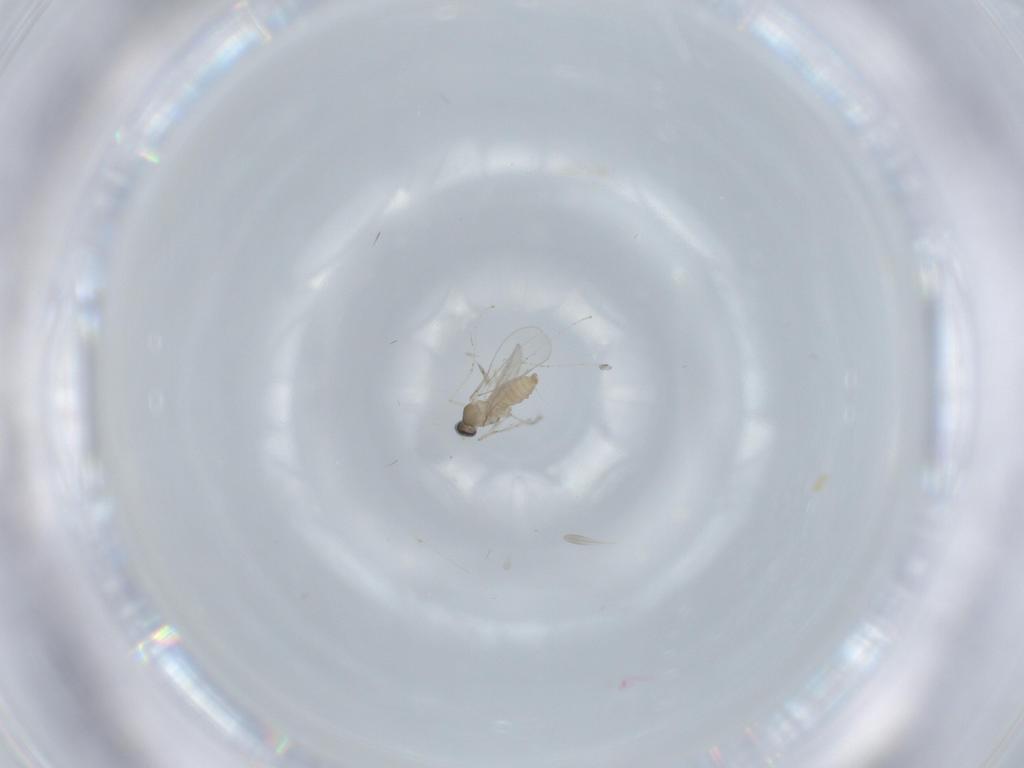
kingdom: Animalia
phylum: Arthropoda
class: Insecta
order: Diptera
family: Cecidomyiidae
